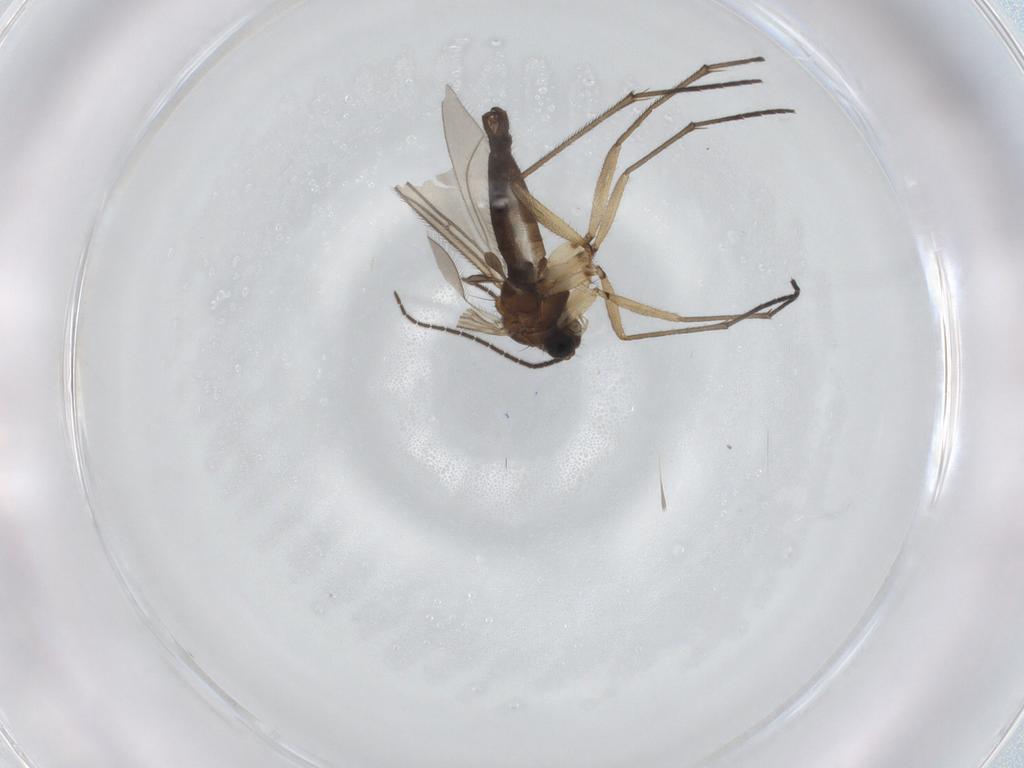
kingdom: Animalia
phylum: Arthropoda
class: Insecta
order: Diptera
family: Sciaridae
